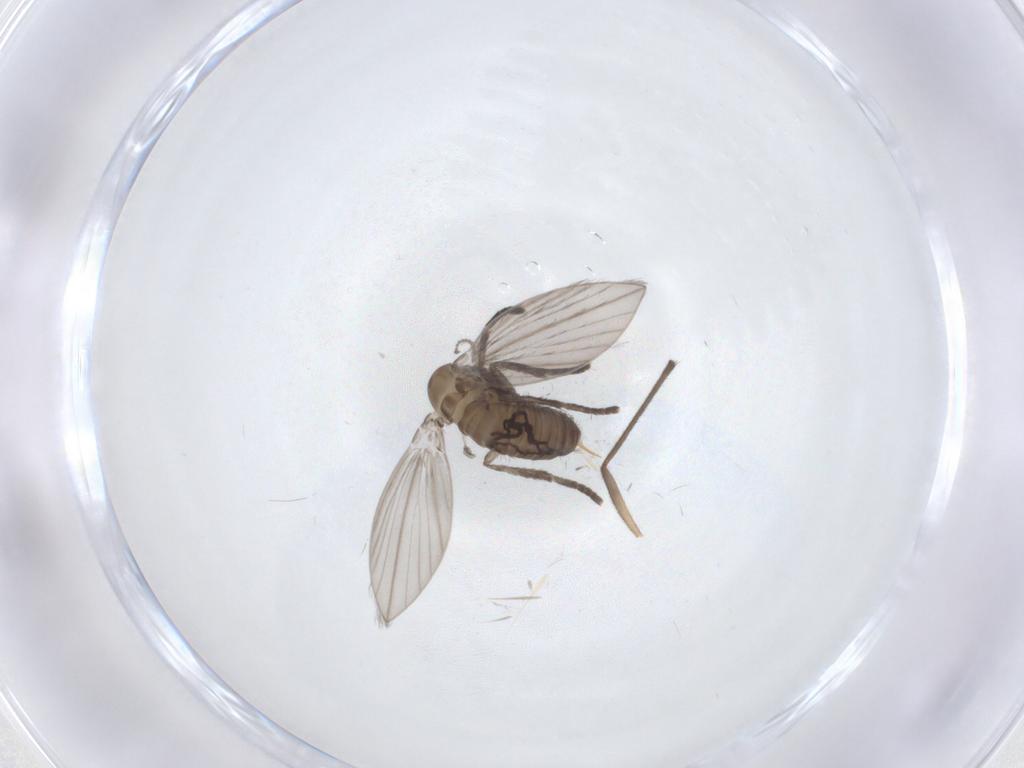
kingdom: Animalia
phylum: Arthropoda
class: Insecta
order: Diptera
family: Psychodidae
